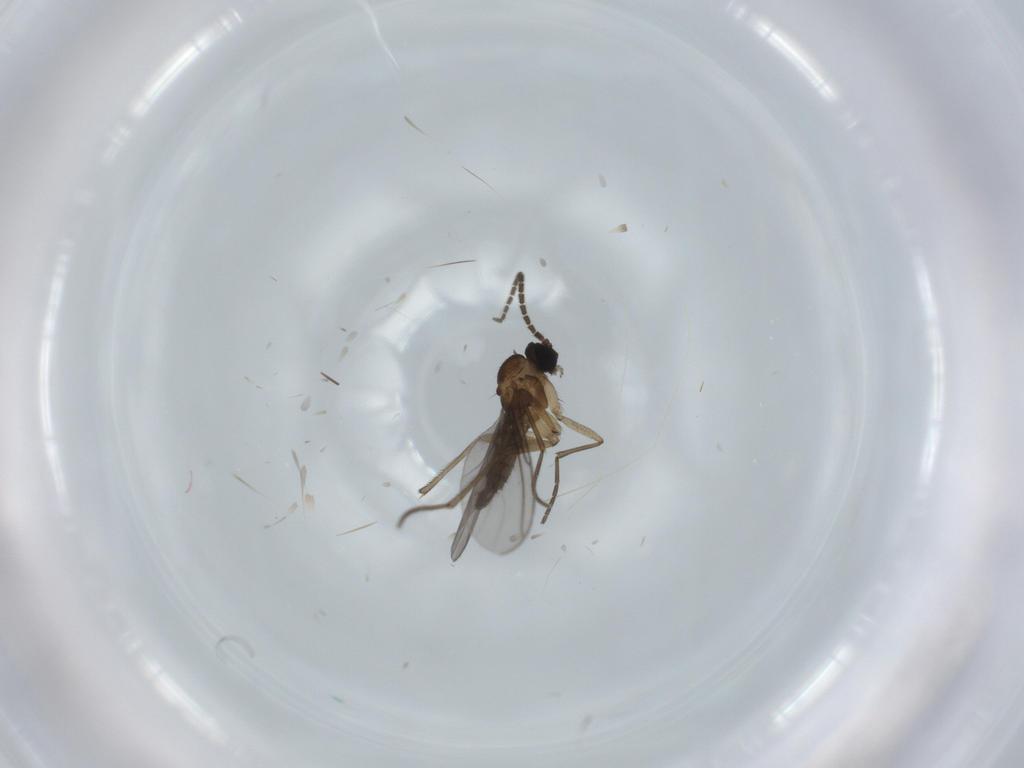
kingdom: Animalia
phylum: Arthropoda
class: Insecta
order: Diptera
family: Sciaridae
